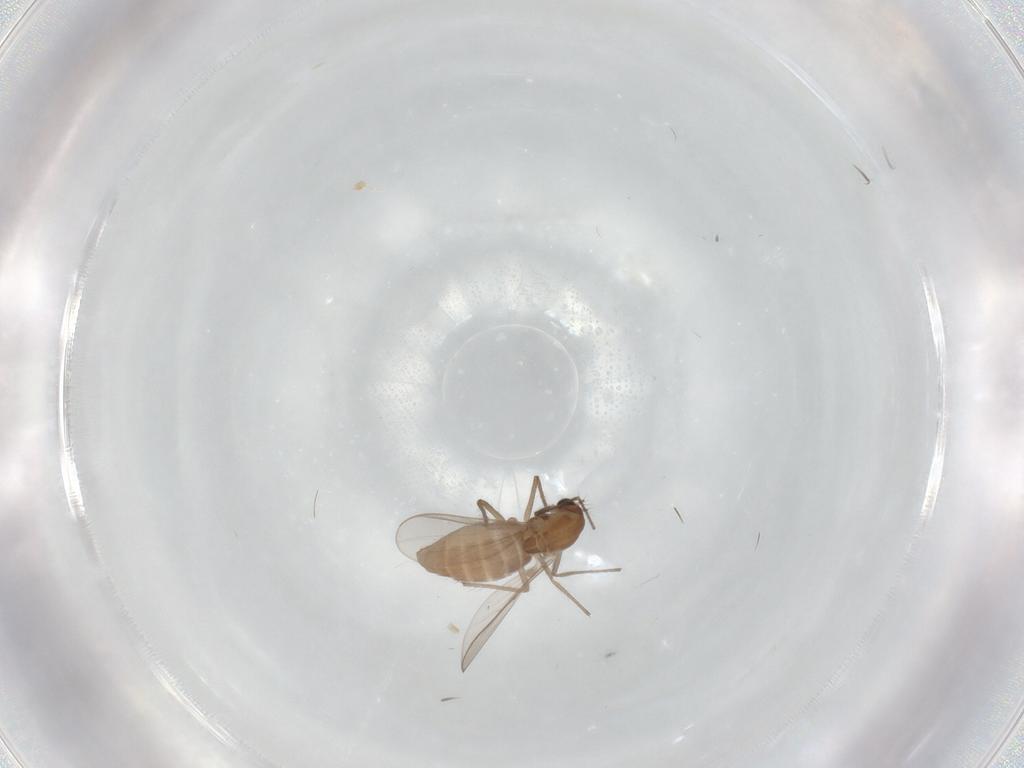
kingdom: Animalia
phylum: Arthropoda
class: Insecta
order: Diptera
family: Chironomidae
